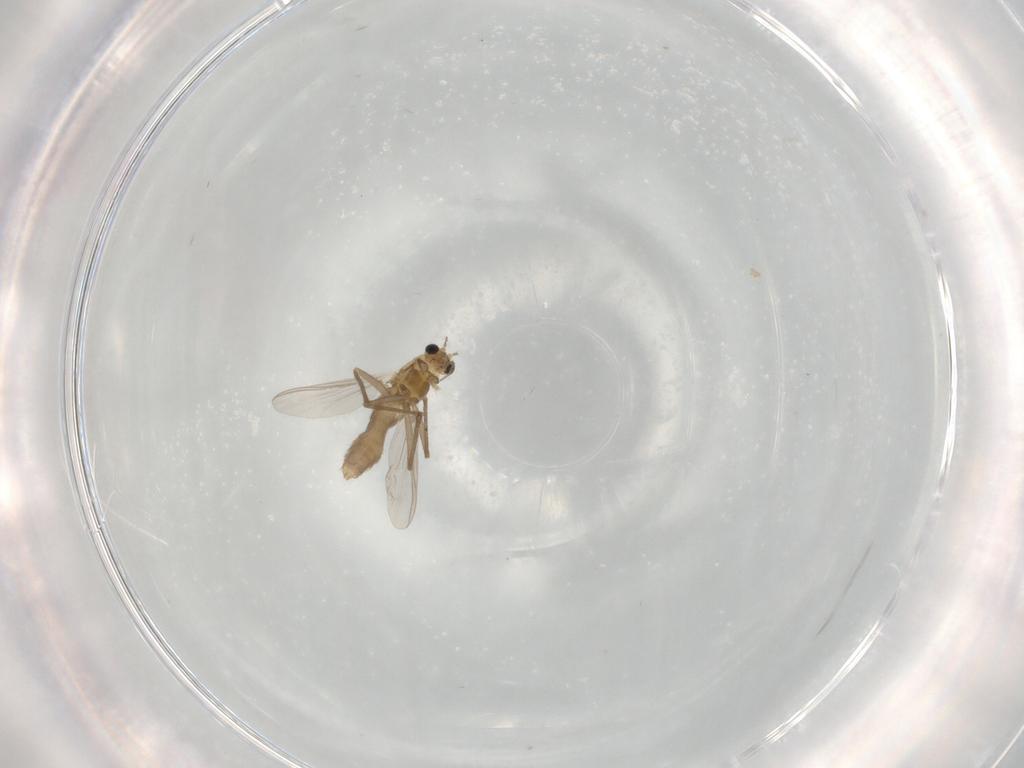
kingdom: Animalia
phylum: Arthropoda
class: Insecta
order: Diptera
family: Chironomidae
